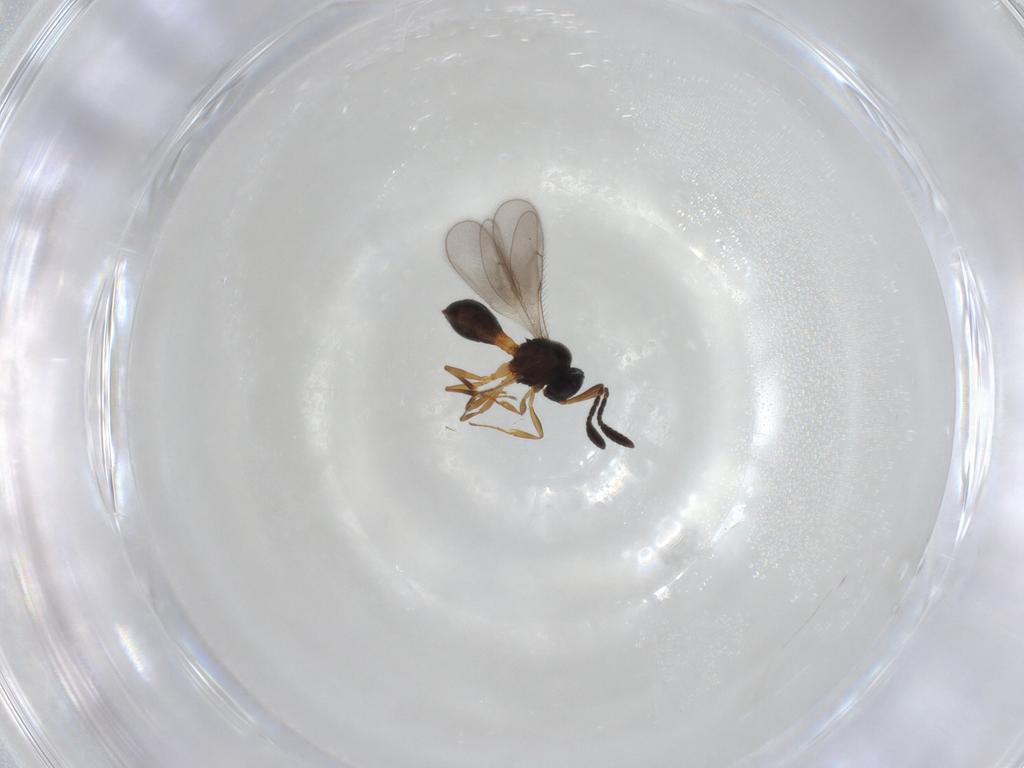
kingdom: Animalia
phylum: Arthropoda
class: Insecta
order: Hymenoptera
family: Scelionidae
